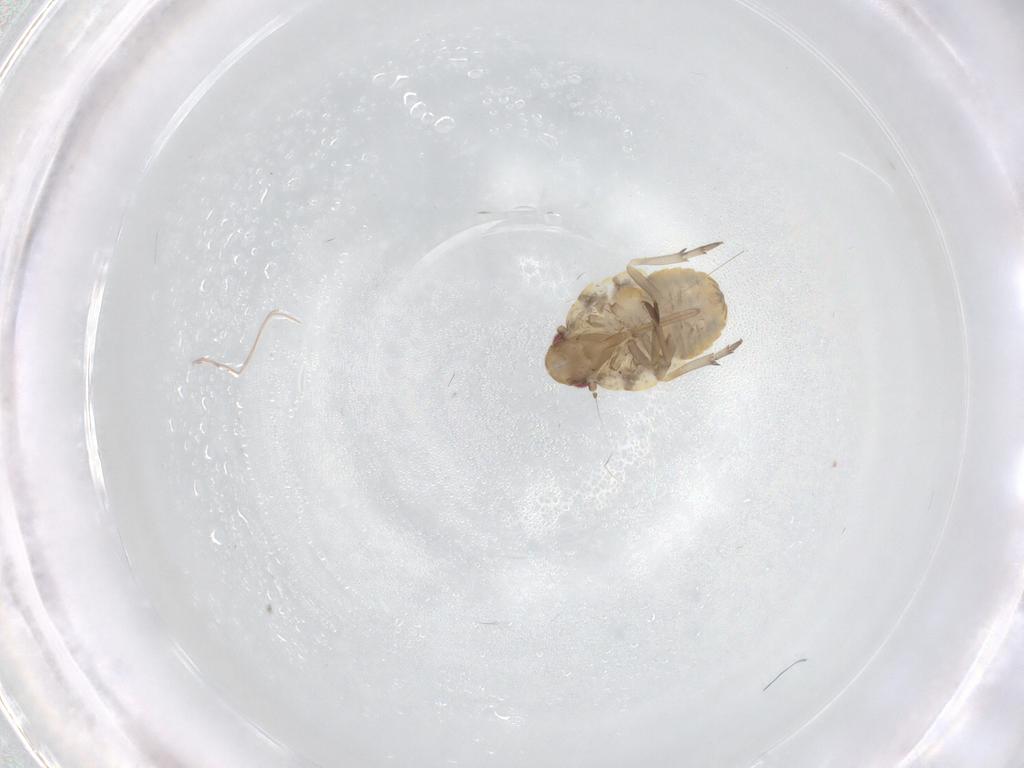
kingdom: Animalia
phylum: Arthropoda
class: Insecta
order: Hemiptera
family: Flatidae
